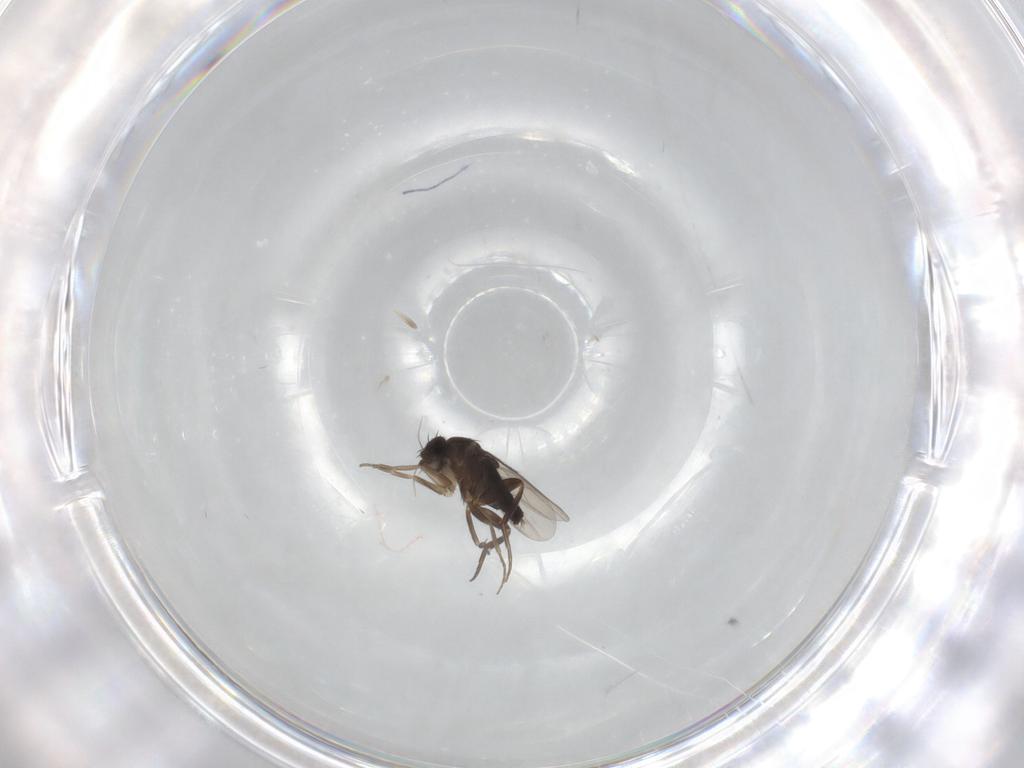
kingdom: Animalia
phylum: Arthropoda
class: Insecta
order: Diptera
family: Phoridae
